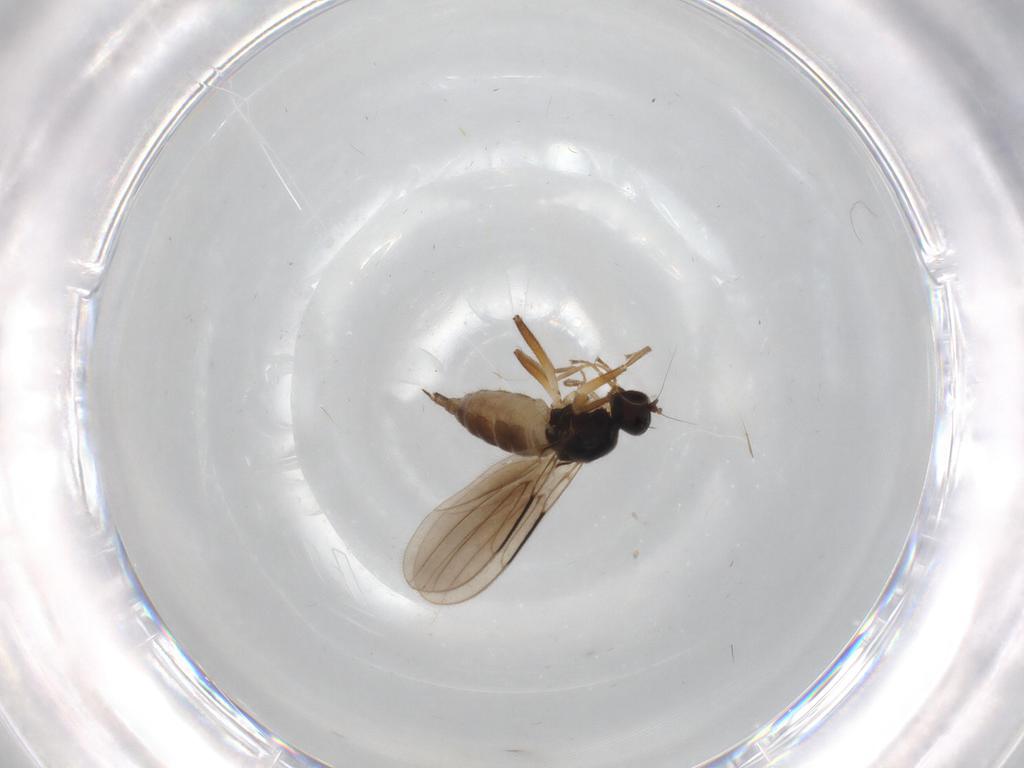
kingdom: Animalia
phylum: Arthropoda
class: Insecta
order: Diptera
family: Hybotidae
